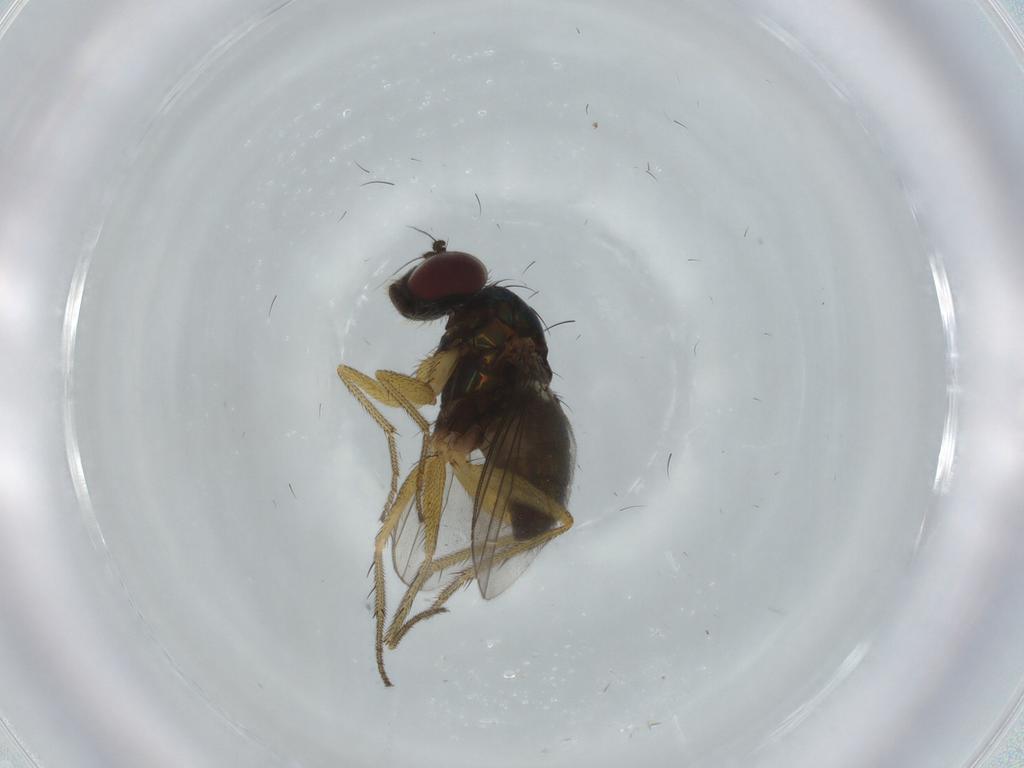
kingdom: Animalia
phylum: Arthropoda
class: Insecta
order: Diptera
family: Dolichopodidae
